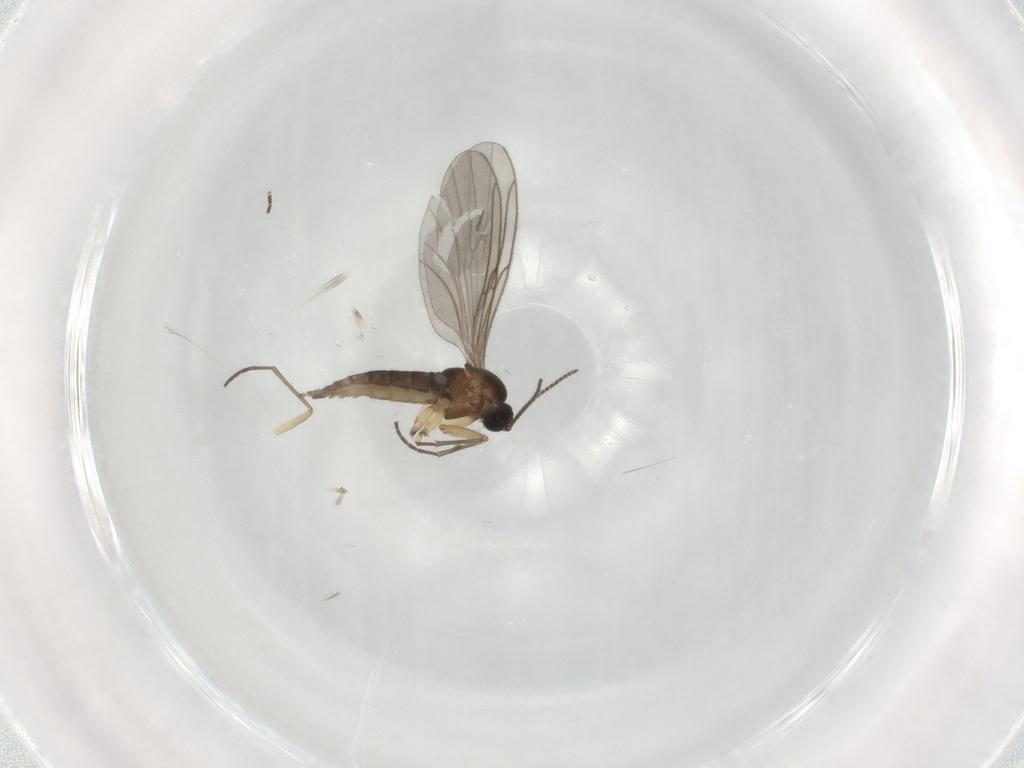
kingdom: Animalia
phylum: Arthropoda
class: Insecta
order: Diptera
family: Sciaridae
